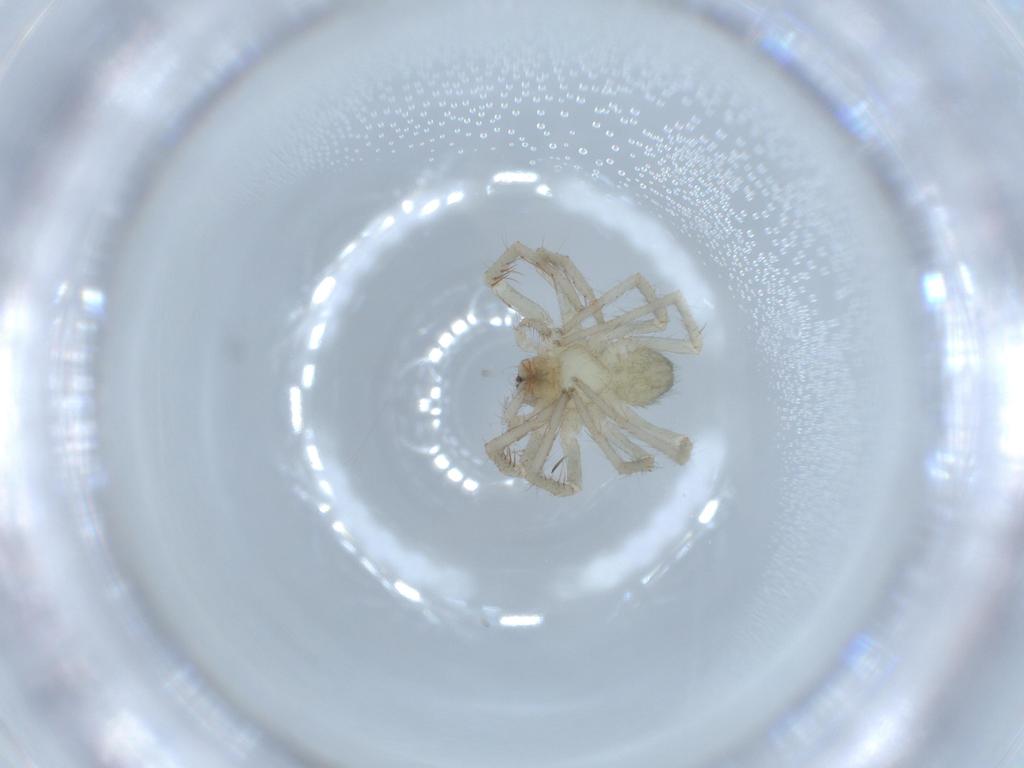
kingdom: Animalia
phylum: Arthropoda
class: Arachnida
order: Araneae
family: Ctenidae
